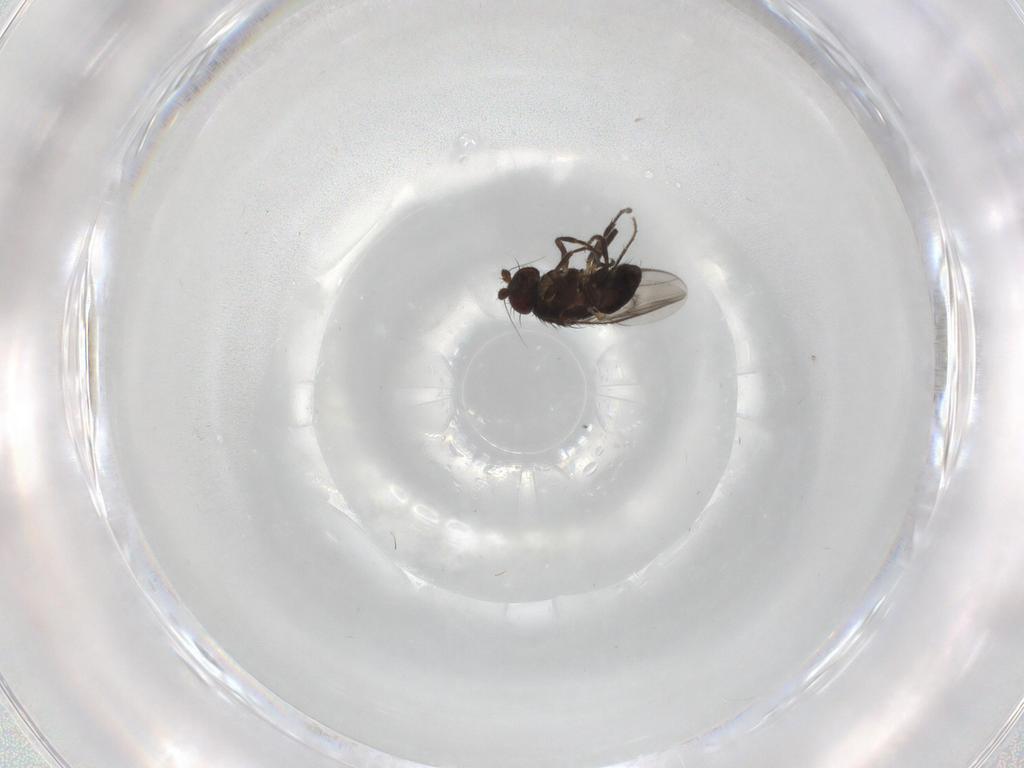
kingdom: Animalia
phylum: Arthropoda
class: Insecta
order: Diptera
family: Sphaeroceridae
